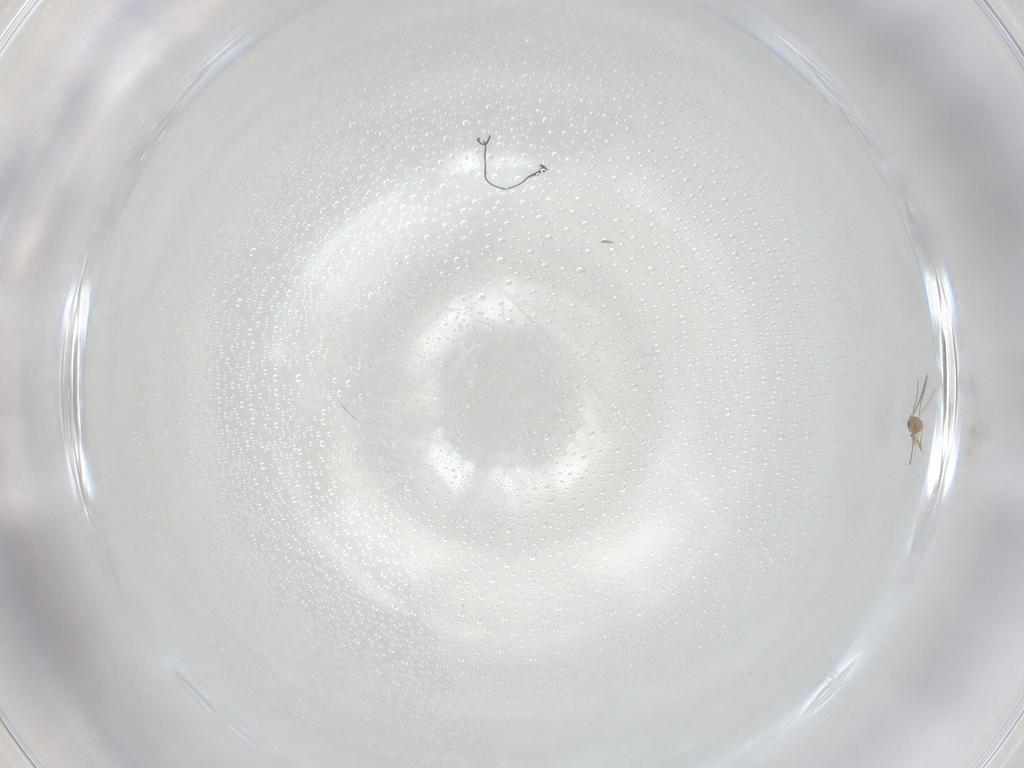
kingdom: Animalia
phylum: Arthropoda
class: Insecta
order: Hymenoptera
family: Mymaridae
